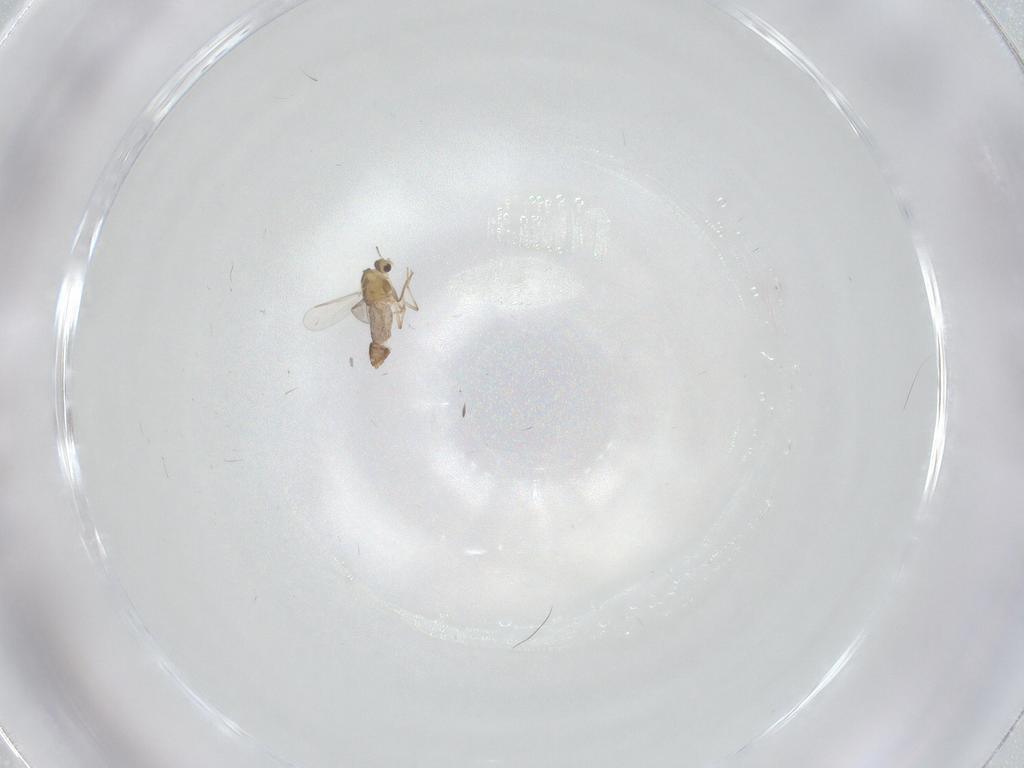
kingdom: Animalia
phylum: Arthropoda
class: Insecta
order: Diptera
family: Chironomidae
